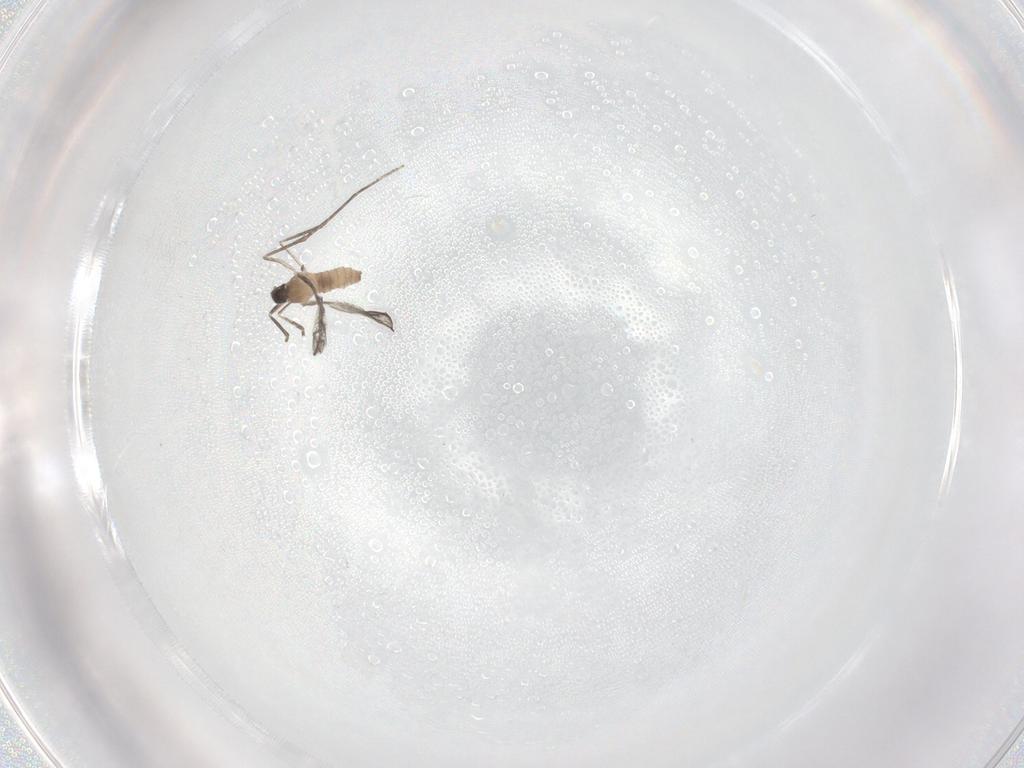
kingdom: Animalia
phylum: Arthropoda
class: Insecta
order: Diptera
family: Cecidomyiidae
